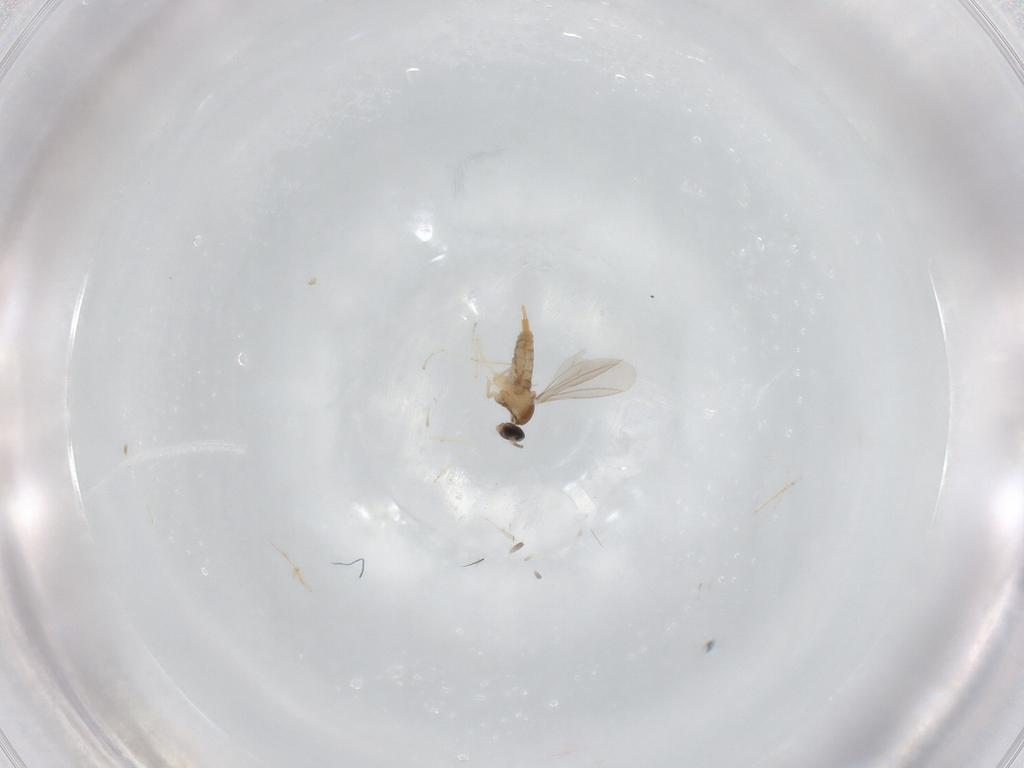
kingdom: Animalia
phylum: Arthropoda
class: Insecta
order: Diptera
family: Cecidomyiidae
